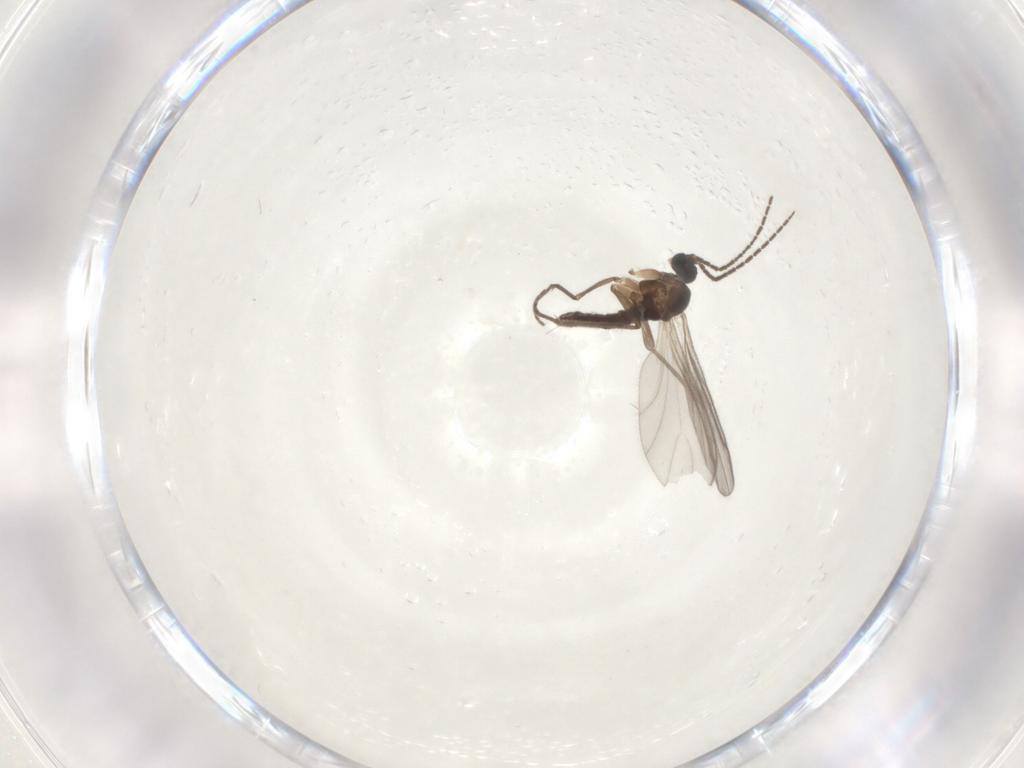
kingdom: Animalia
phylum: Arthropoda
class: Insecta
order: Diptera
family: Sciaridae
